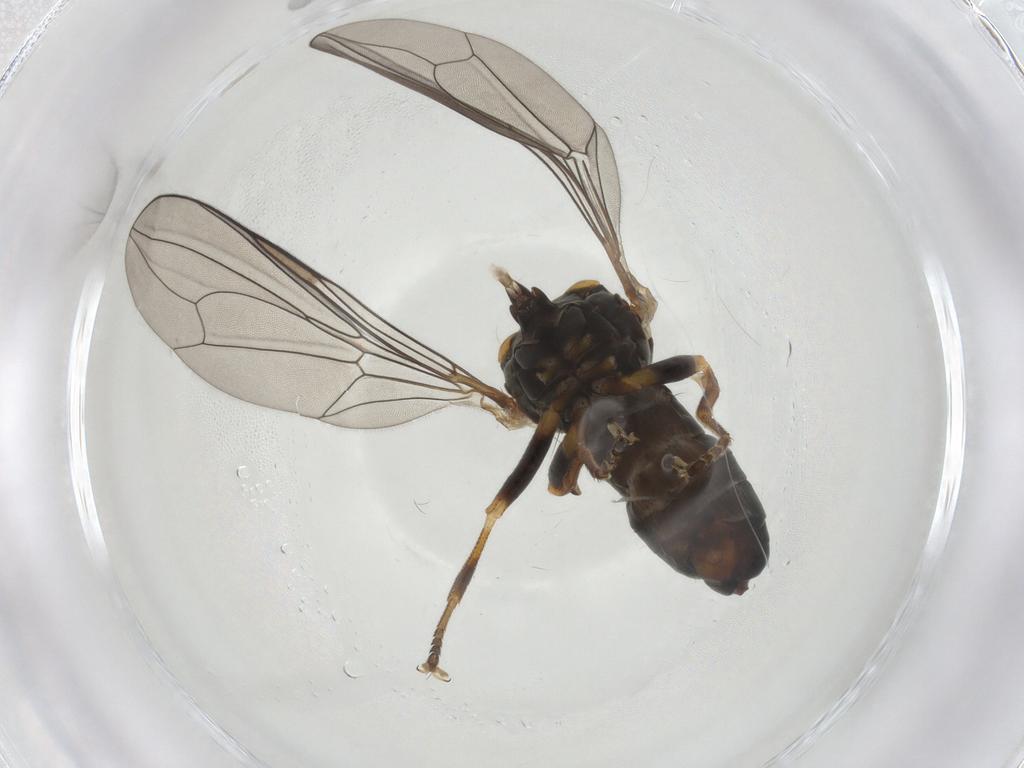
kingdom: Animalia
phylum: Arthropoda
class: Insecta
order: Diptera
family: Pipunculidae
